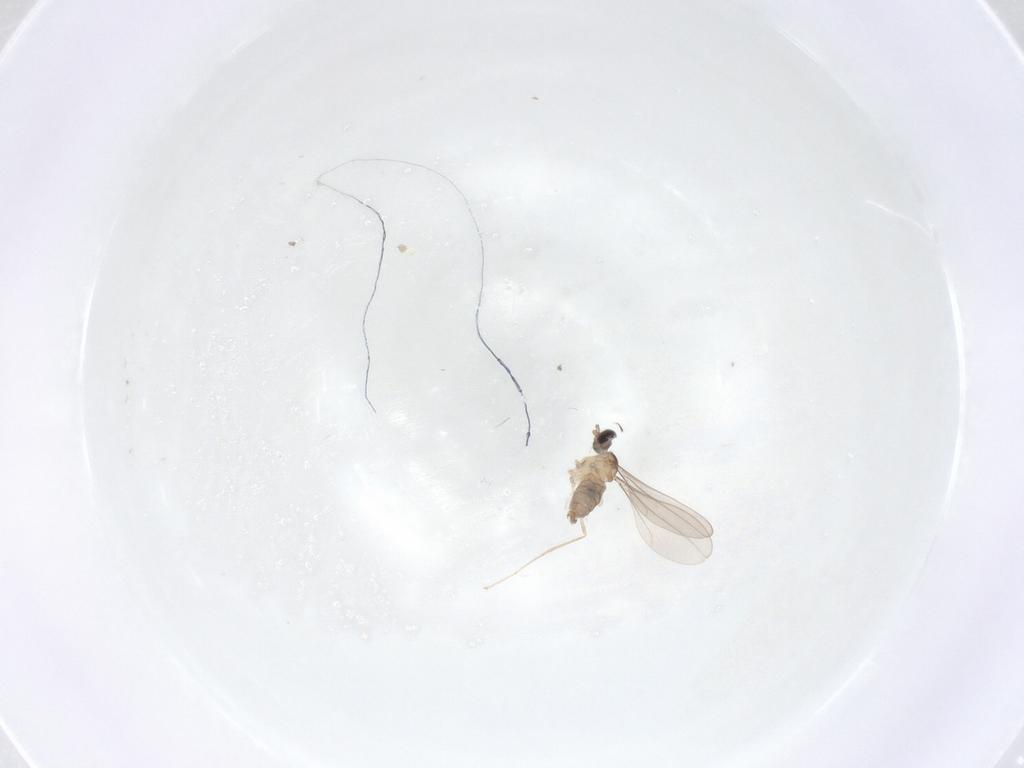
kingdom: Animalia
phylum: Arthropoda
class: Insecta
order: Diptera
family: Cecidomyiidae
